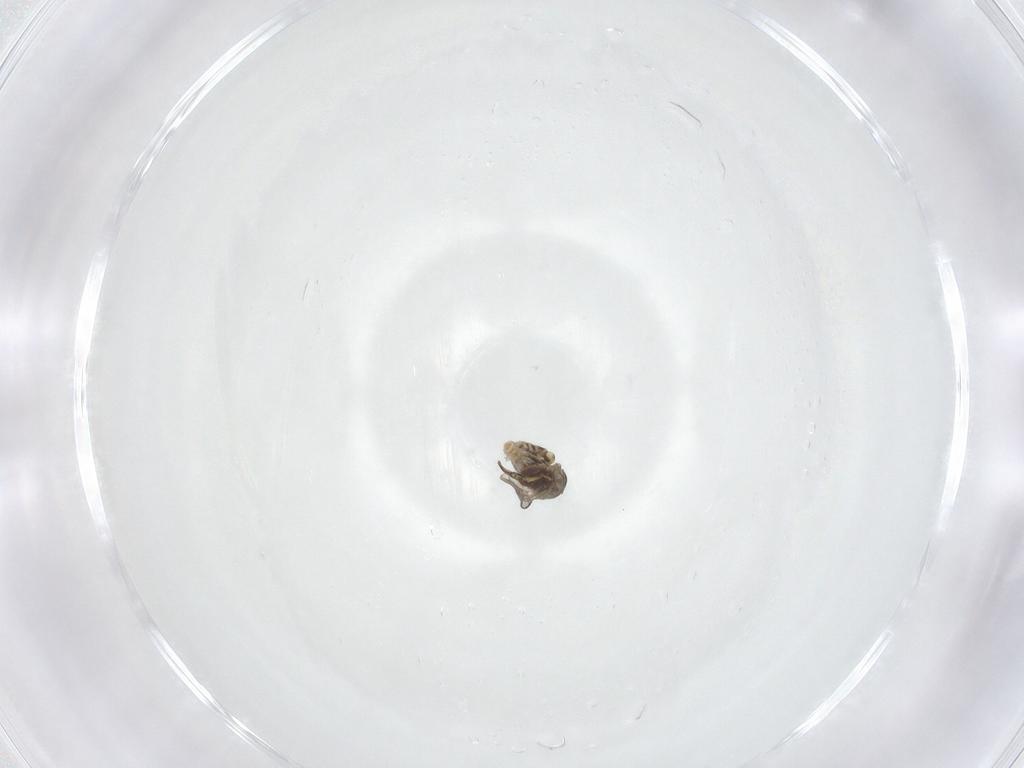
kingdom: Animalia
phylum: Arthropoda
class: Insecta
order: Diptera
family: Bombyliidae
